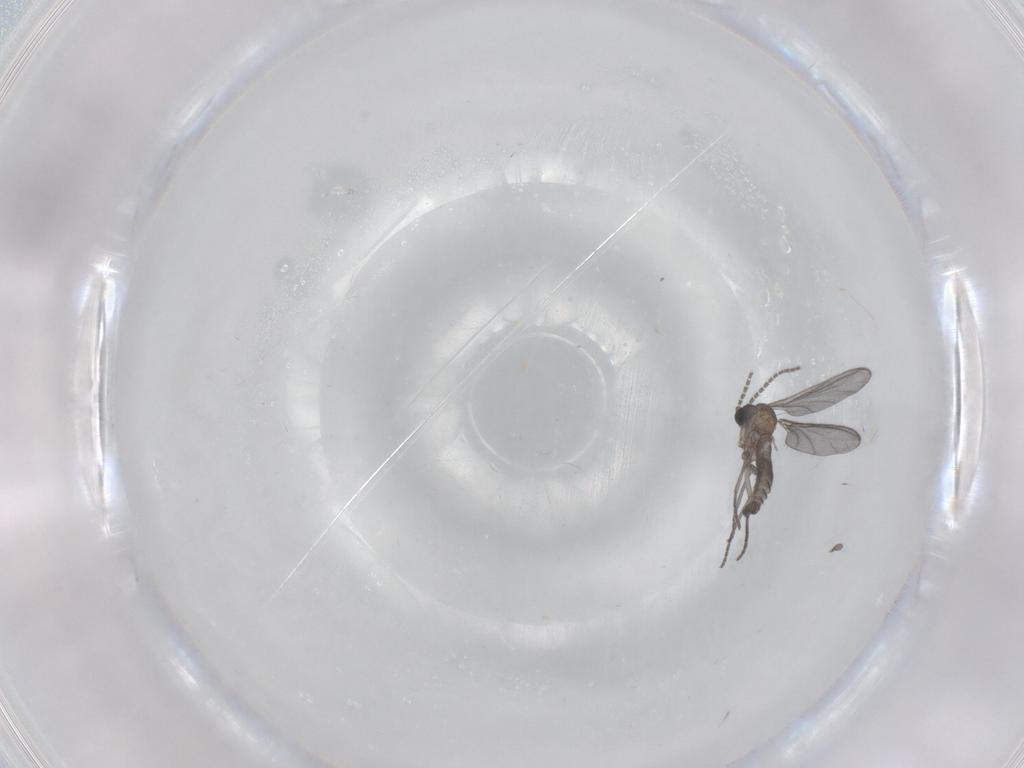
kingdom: Animalia
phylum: Arthropoda
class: Insecta
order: Diptera
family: Sciaridae
